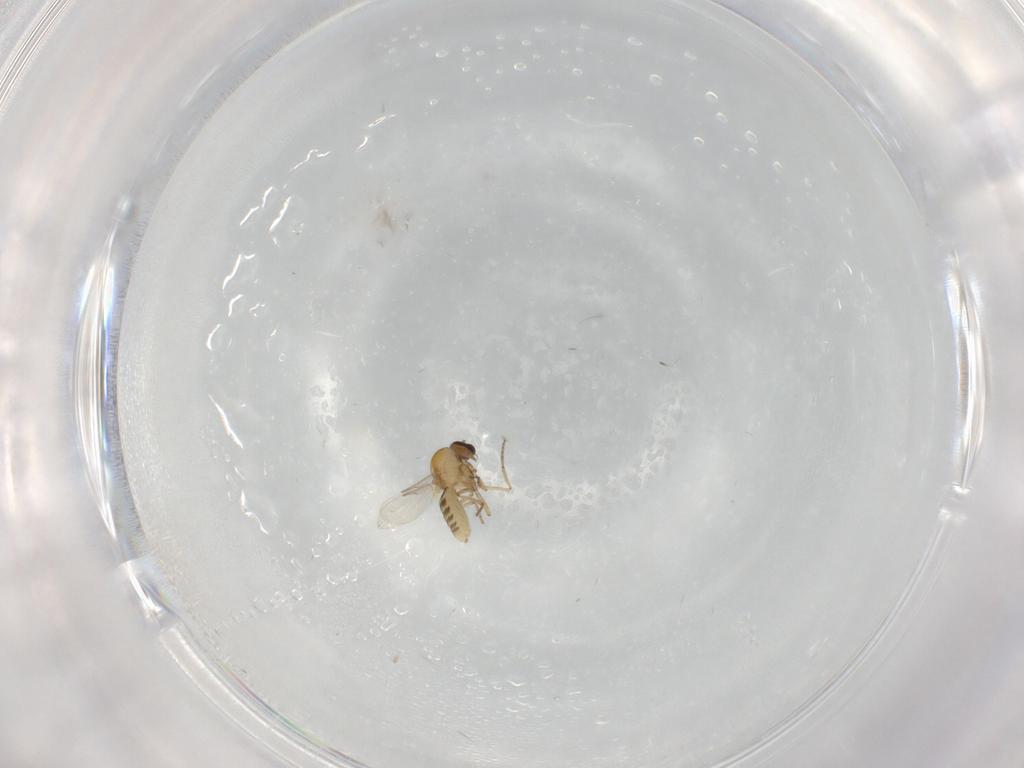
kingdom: Animalia
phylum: Arthropoda
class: Insecta
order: Diptera
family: Ceratopogonidae
